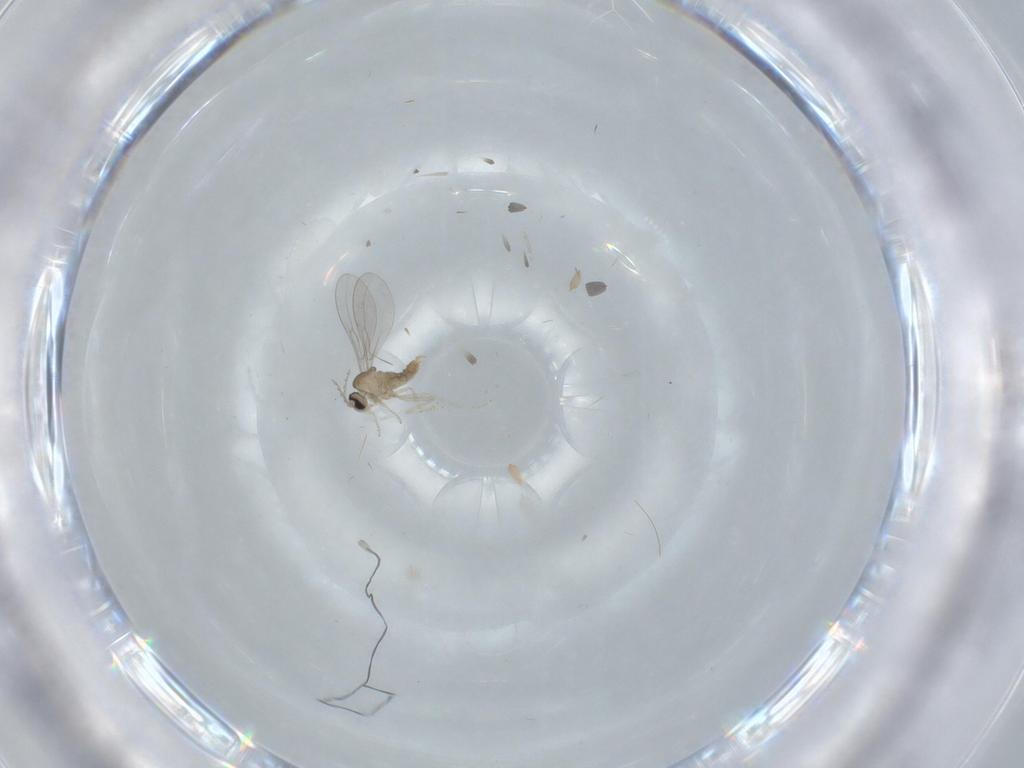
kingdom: Animalia
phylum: Arthropoda
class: Insecta
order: Diptera
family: Cecidomyiidae
